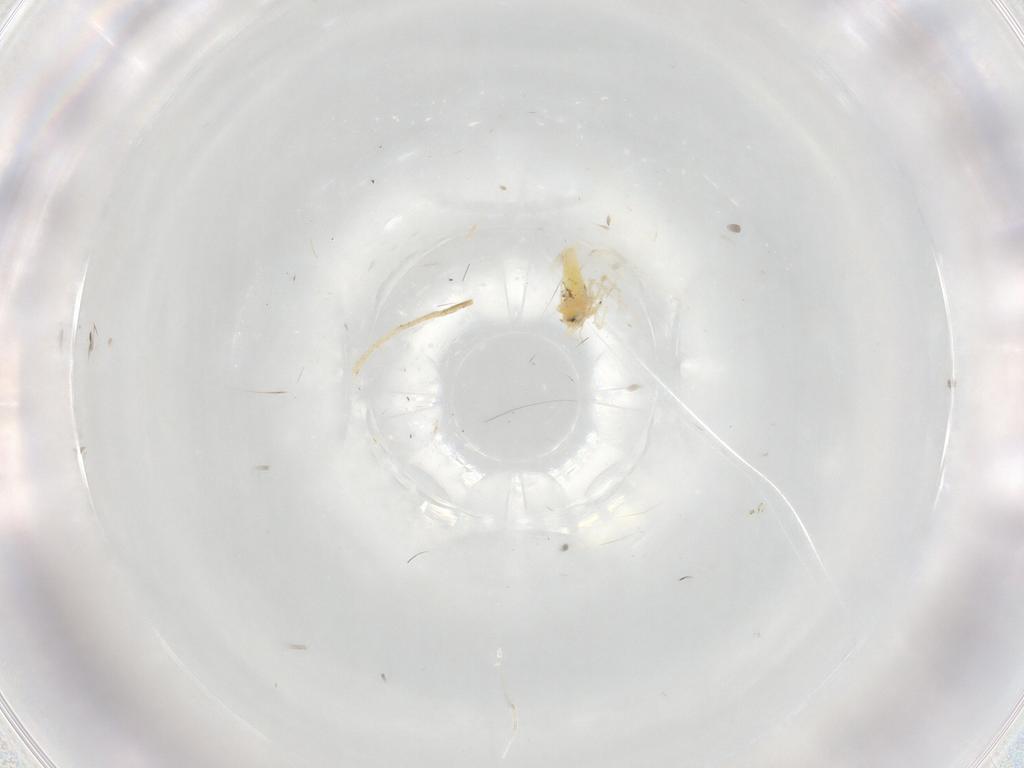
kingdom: Animalia
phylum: Arthropoda
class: Insecta
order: Hemiptera
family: Aleyrodidae
